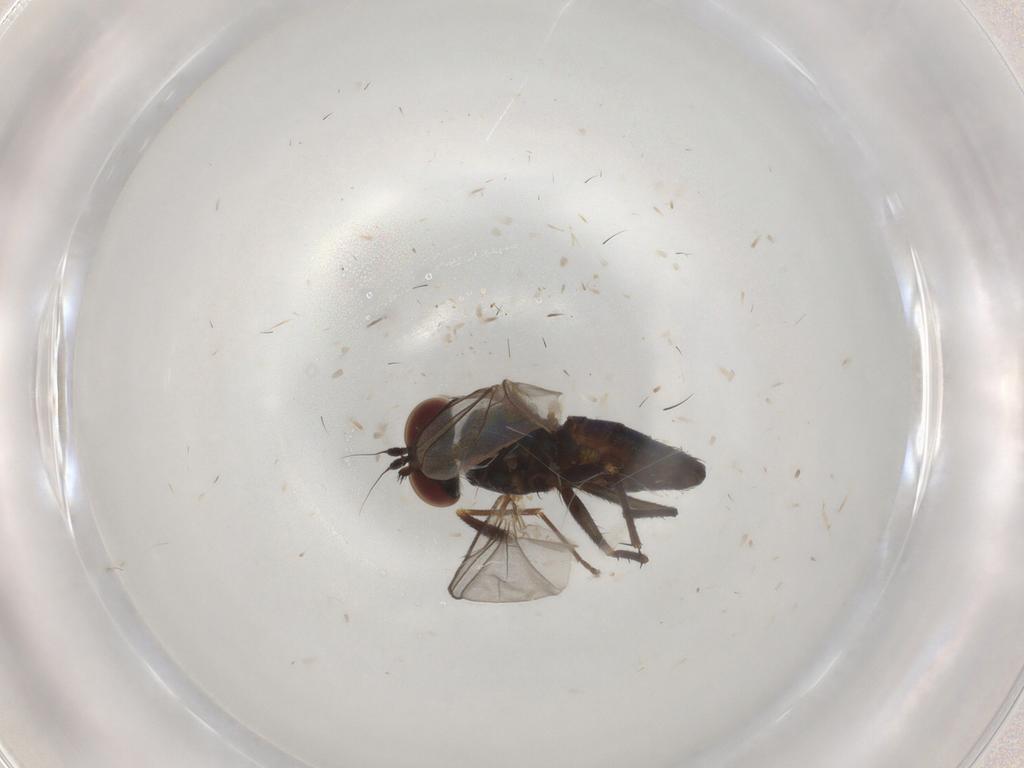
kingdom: Animalia
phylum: Arthropoda
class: Insecta
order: Diptera
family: Dolichopodidae
